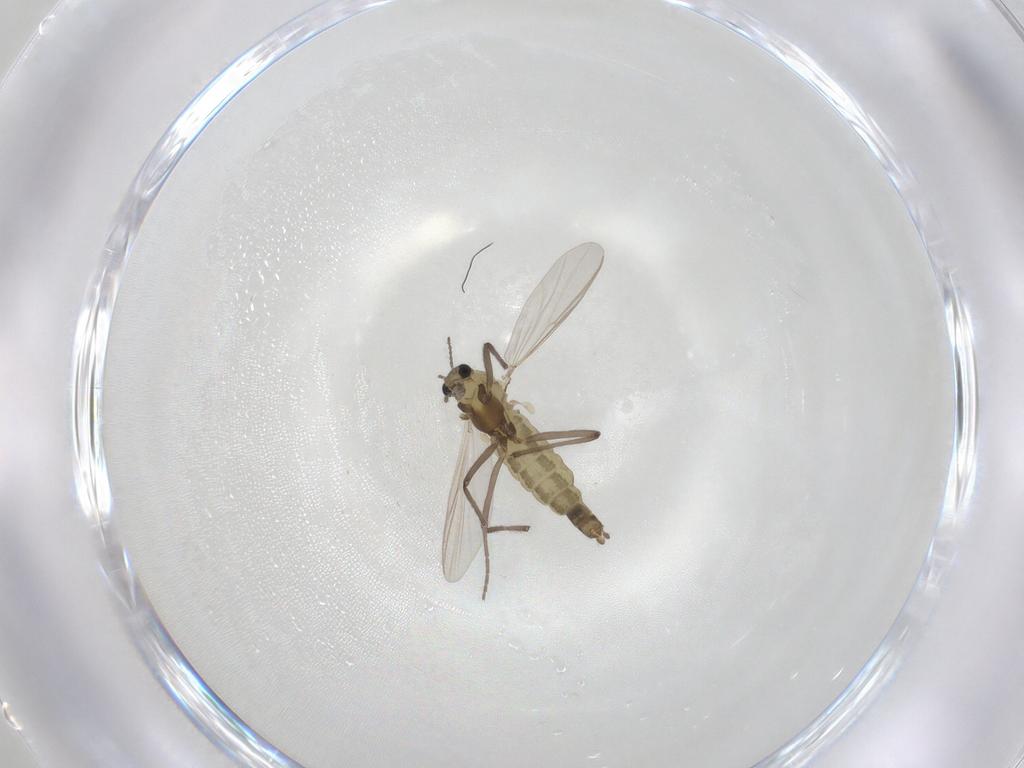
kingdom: Animalia
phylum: Arthropoda
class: Insecta
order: Diptera
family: Chironomidae
